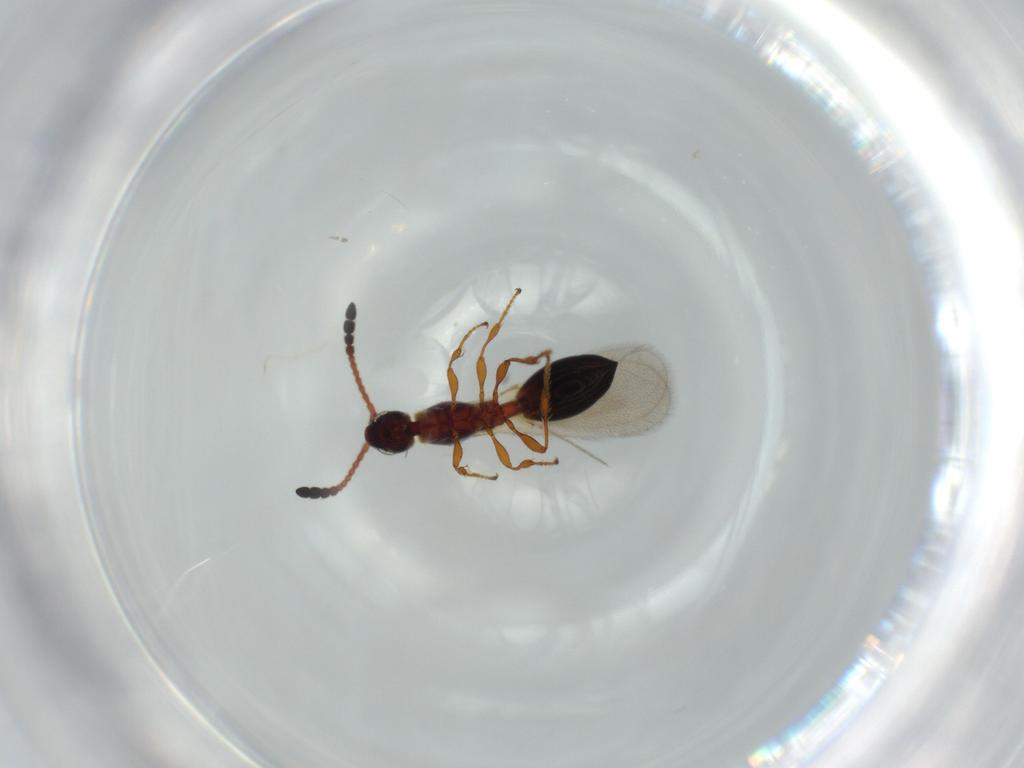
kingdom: Animalia
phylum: Arthropoda
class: Insecta
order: Hymenoptera
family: Diapriidae
